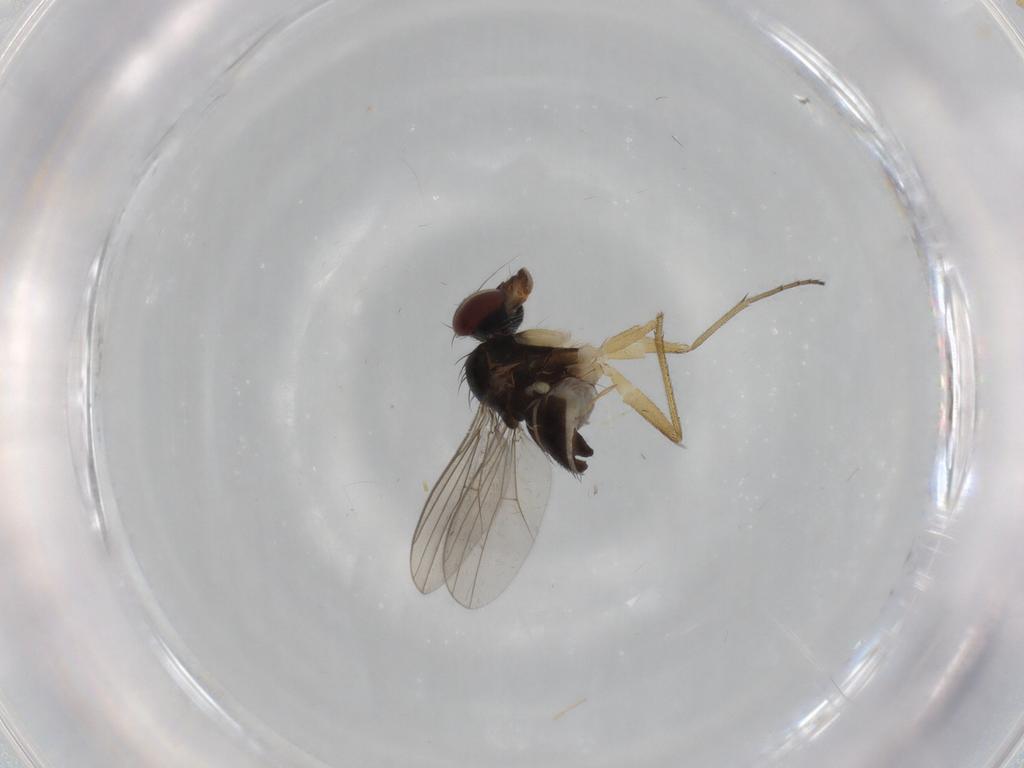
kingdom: Animalia
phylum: Arthropoda
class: Insecta
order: Diptera
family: Dolichopodidae
